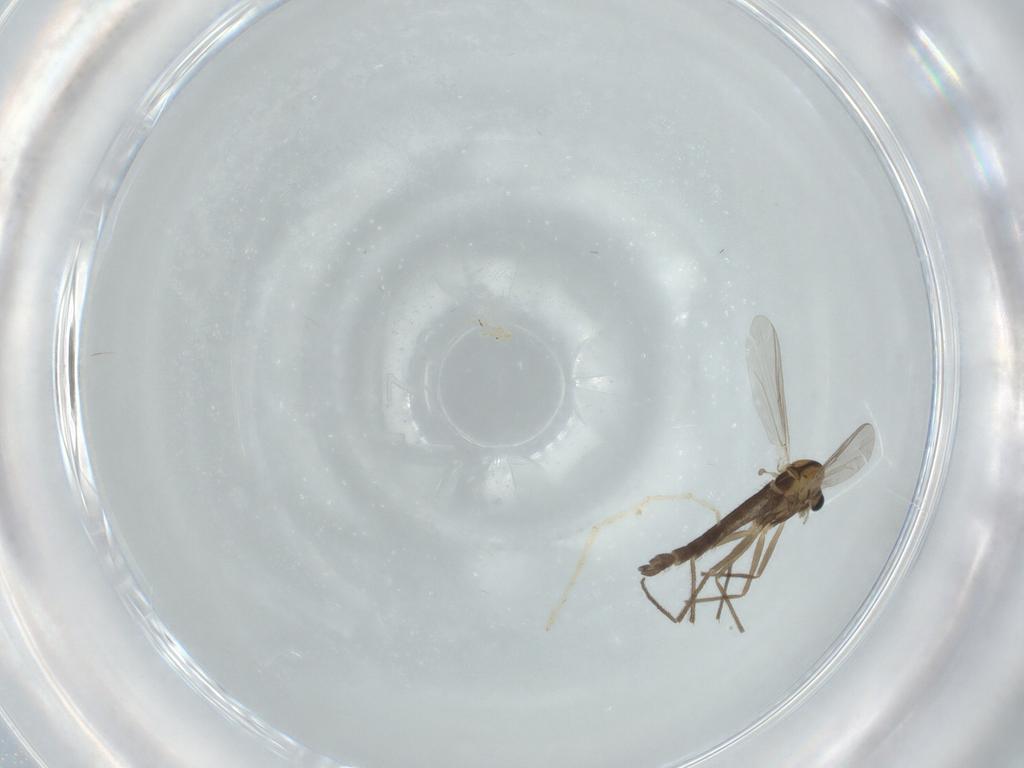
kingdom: Animalia
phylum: Arthropoda
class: Insecta
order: Diptera
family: Chironomidae
